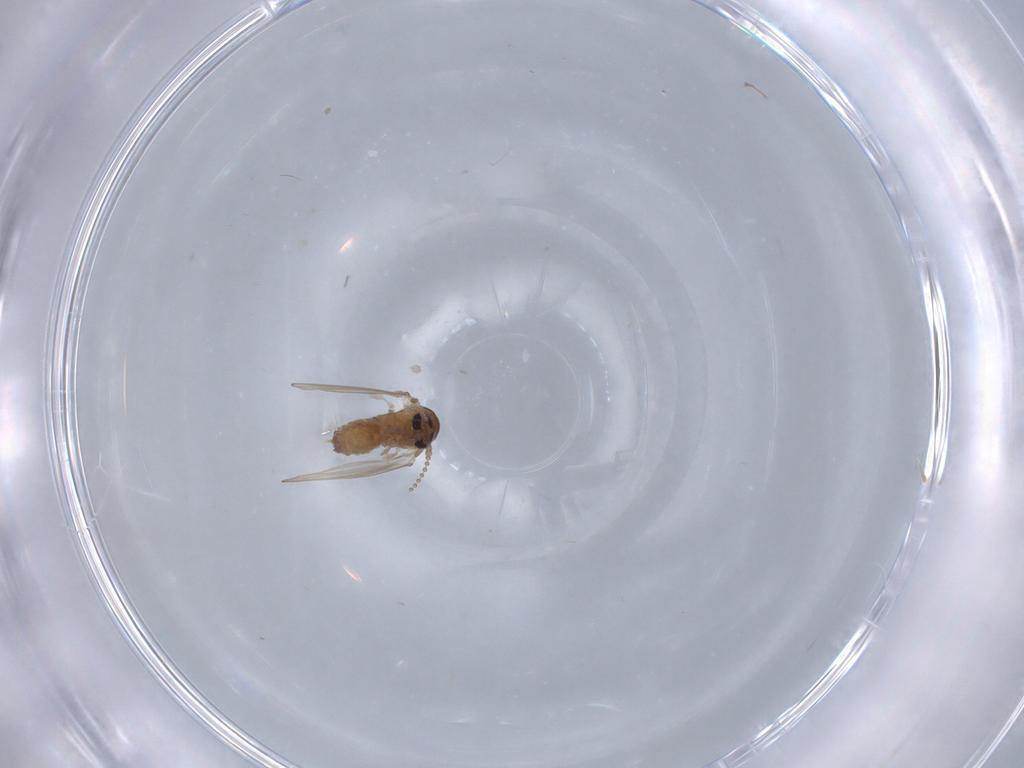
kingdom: Animalia
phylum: Arthropoda
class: Insecta
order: Diptera
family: Psychodidae
